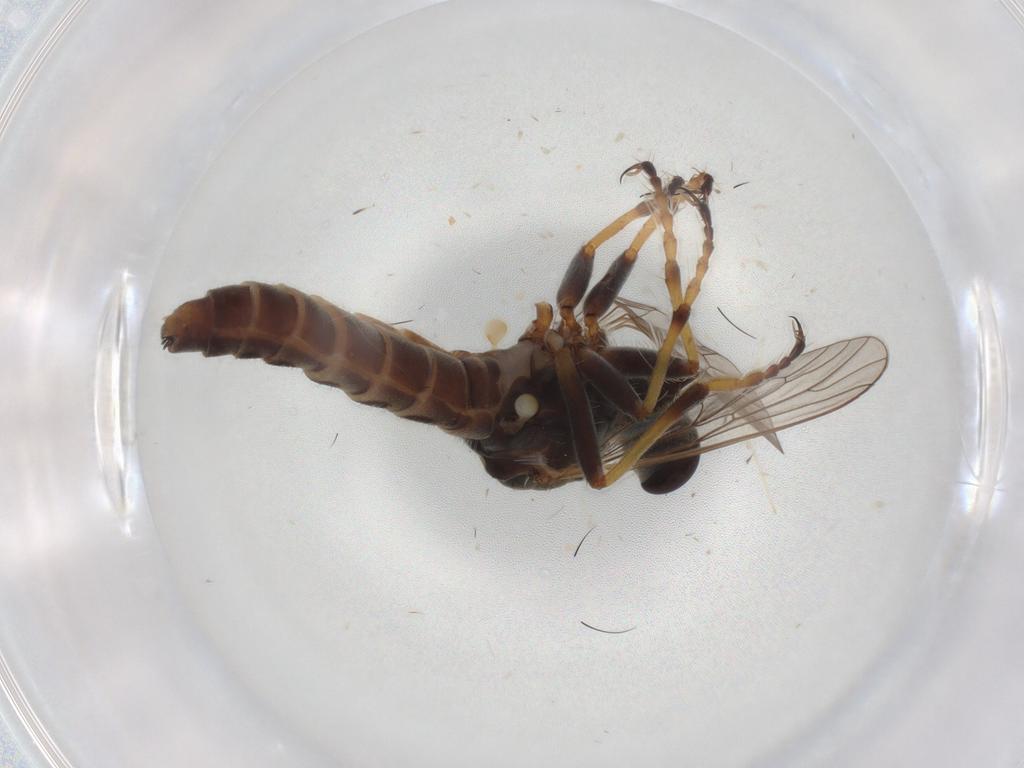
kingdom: Animalia
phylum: Arthropoda
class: Insecta
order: Diptera
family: Asilidae
